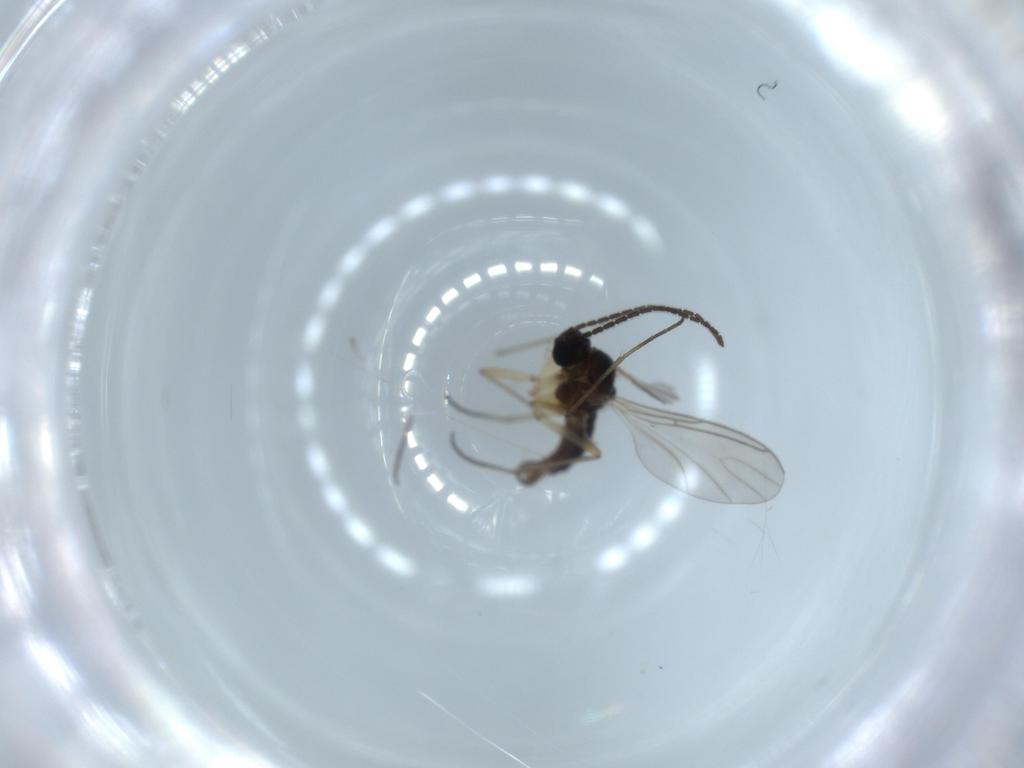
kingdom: Animalia
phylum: Arthropoda
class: Insecta
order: Diptera
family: Sciaridae
